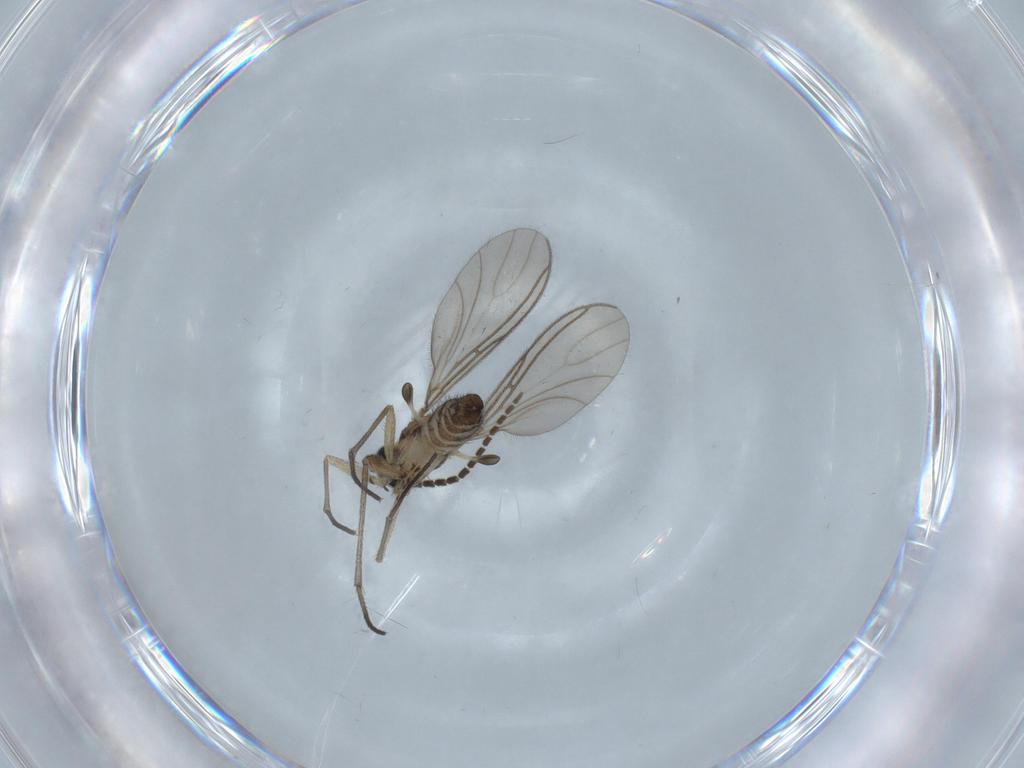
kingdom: Animalia
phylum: Arthropoda
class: Insecta
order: Diptera
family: Sciaridae
